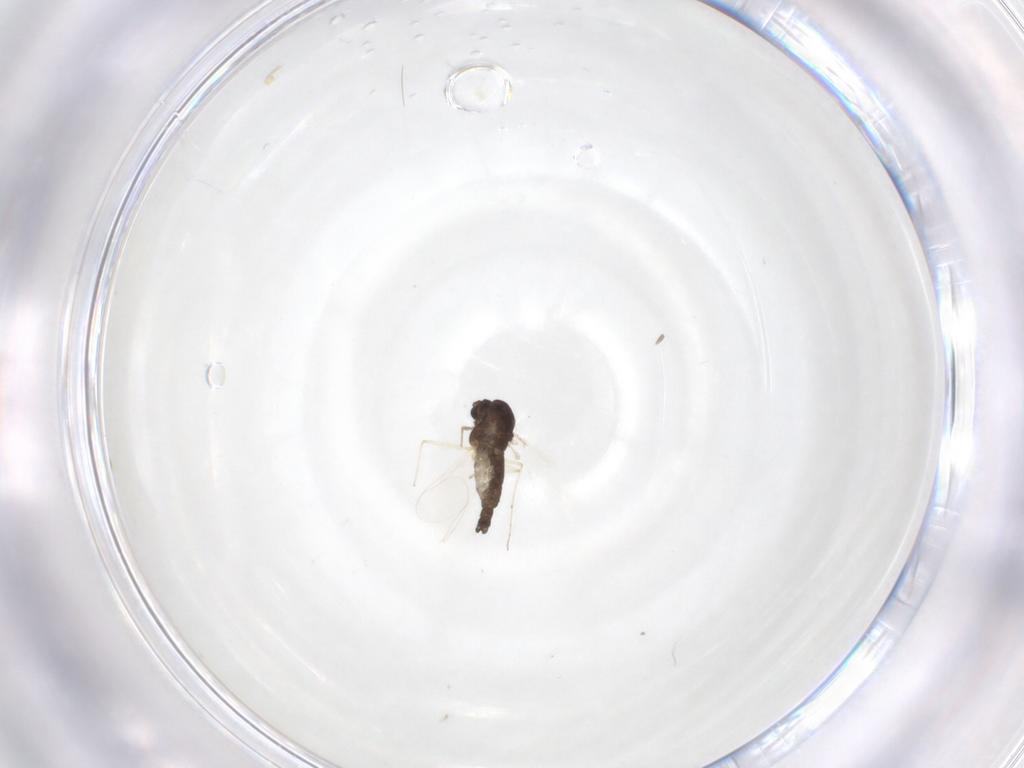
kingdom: Animalia
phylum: Arthropoda
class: Insecta
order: Diptera
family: Chironomidae
